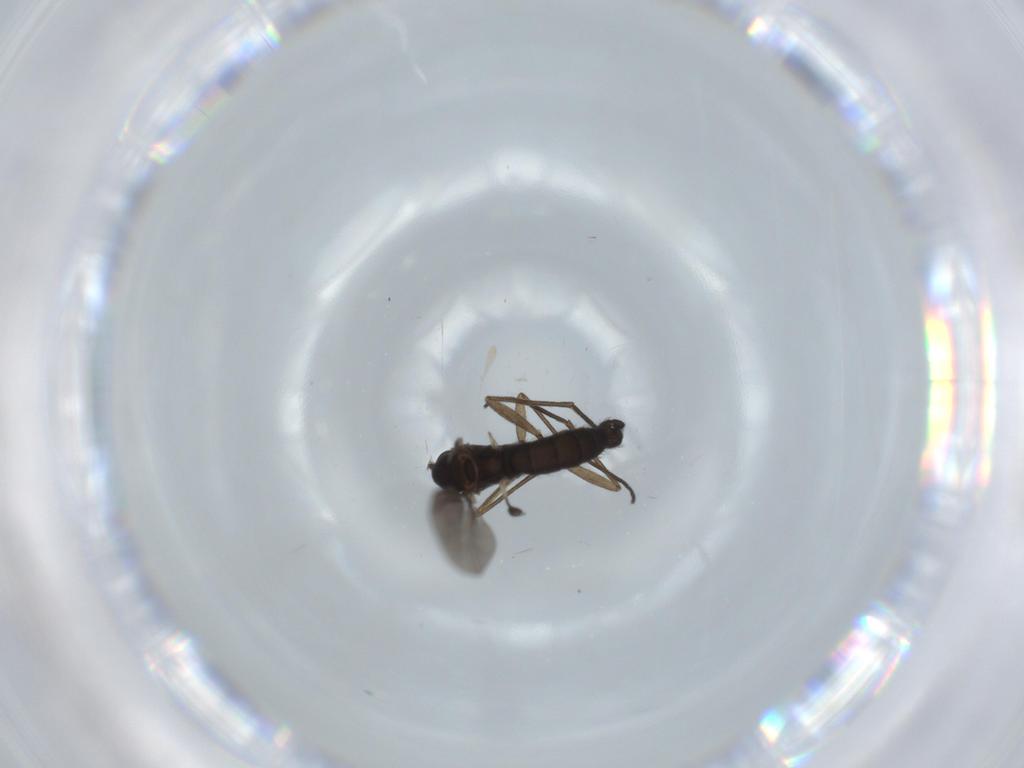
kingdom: Animalia
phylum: Arthropoda
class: Insecta
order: Diptera
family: Sciaridae
